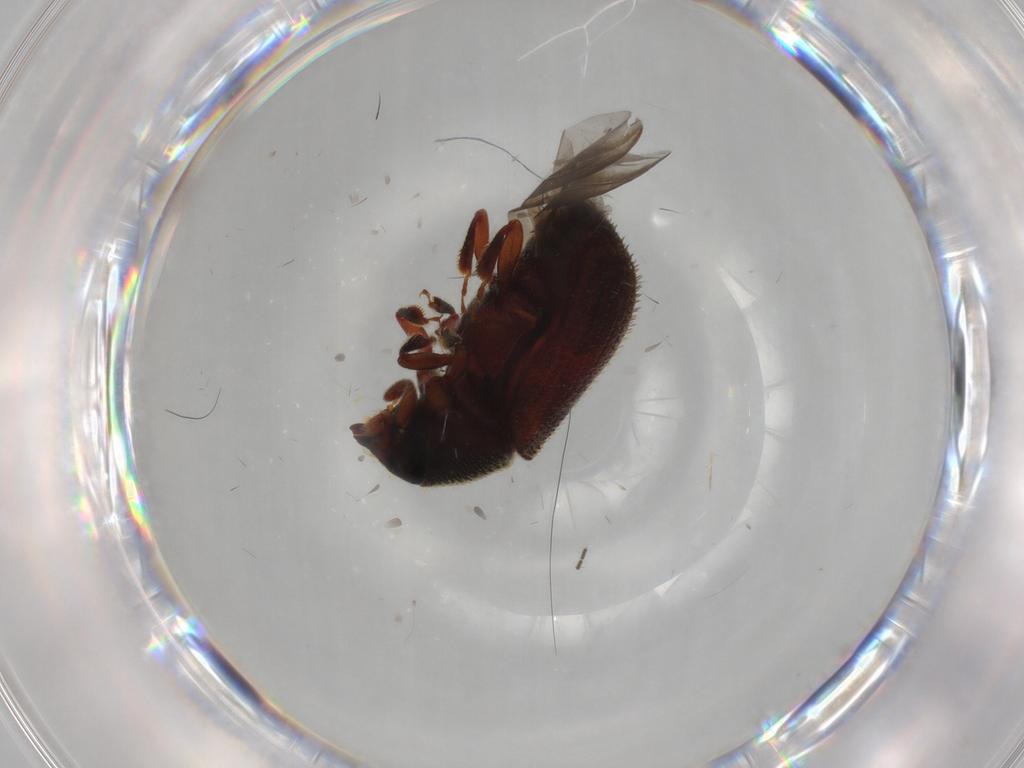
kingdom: Animalia
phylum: Arthropoda
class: Insecta
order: Coleoptera
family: Curculionidae
